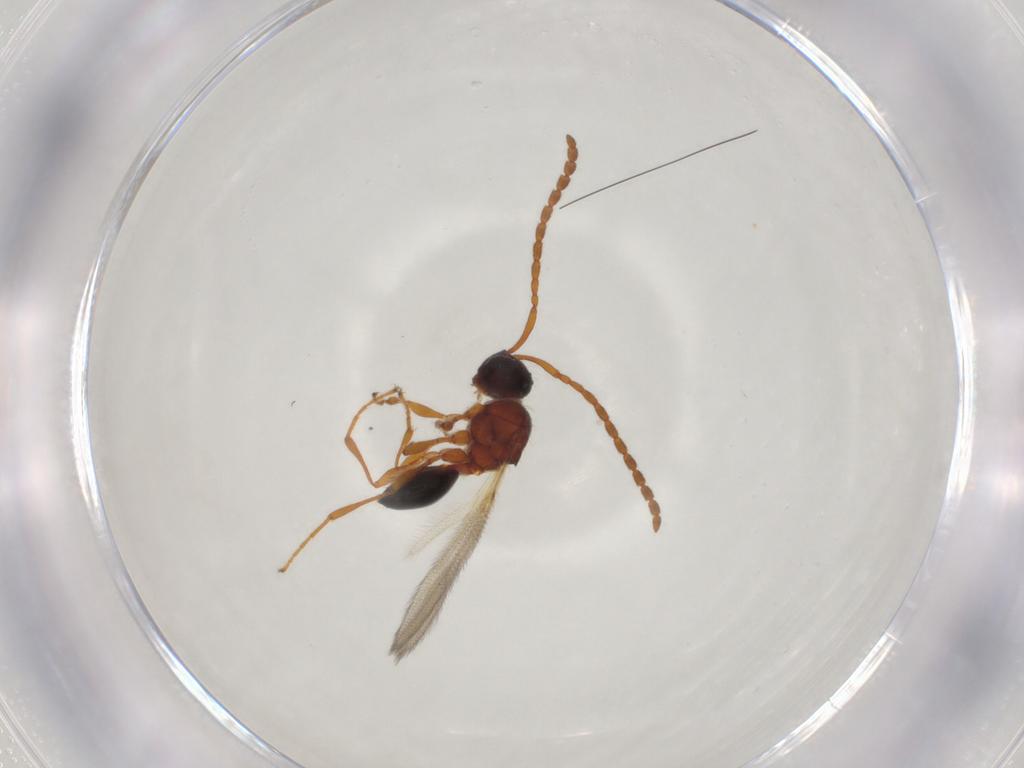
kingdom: Animalia
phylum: Arthropoda
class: Insecta
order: Hymenoptera
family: Diapriidae
